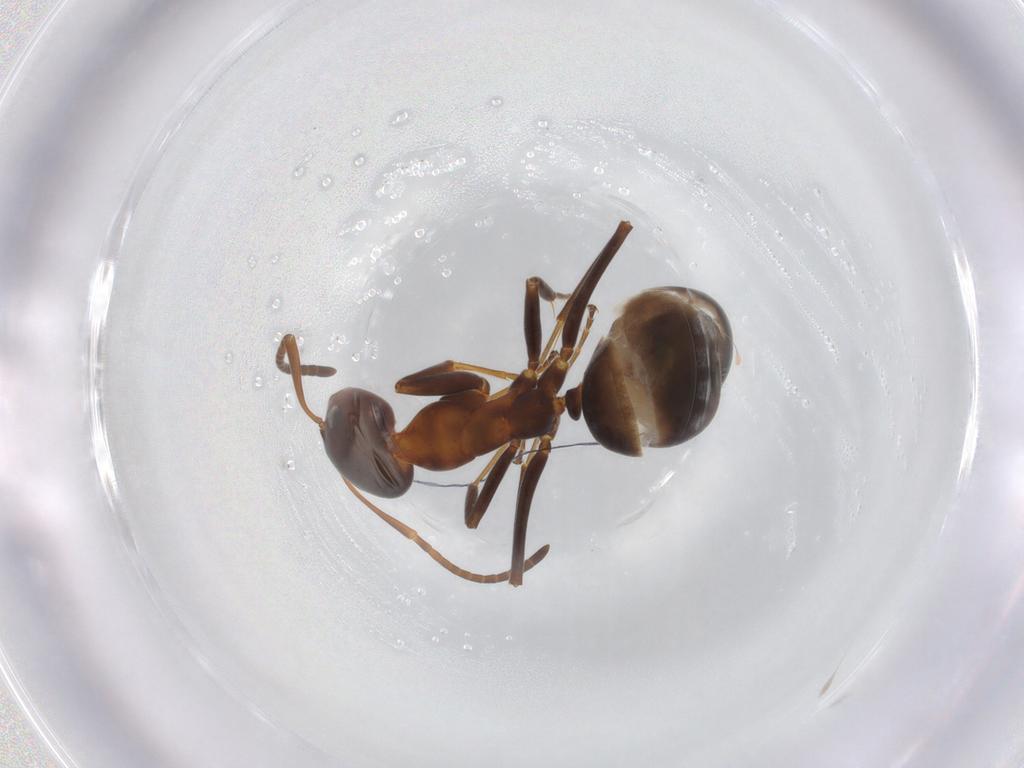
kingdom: Animalia
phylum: Arthropoda
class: Insecta
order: Hymenoptera
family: Formicidae
